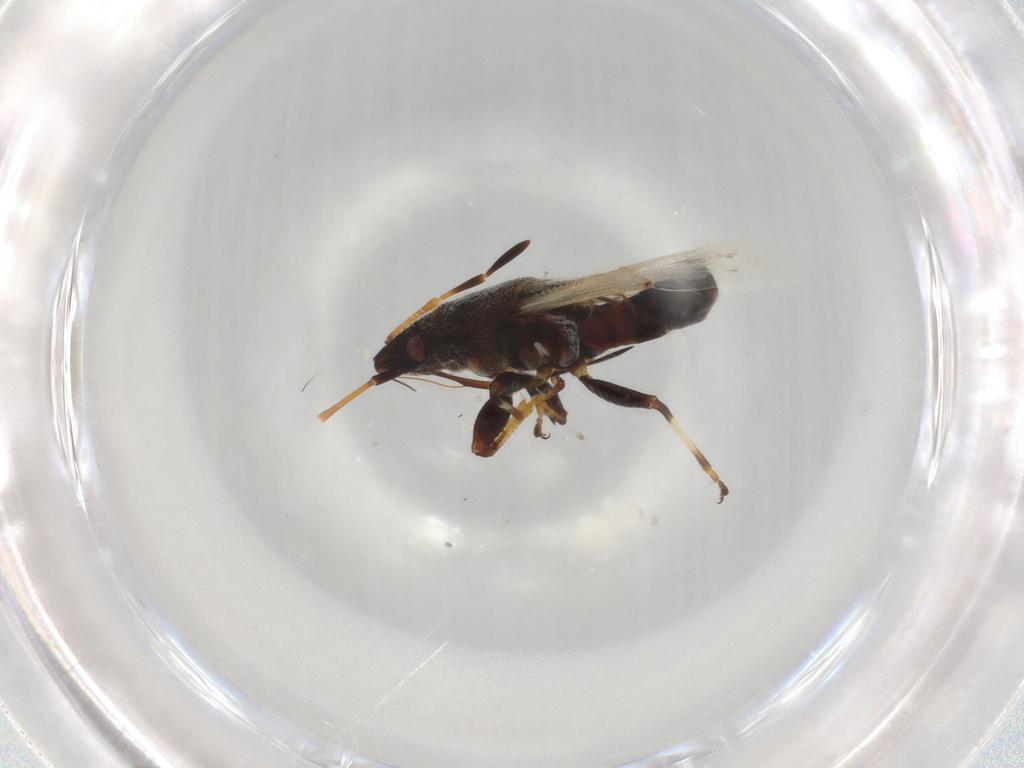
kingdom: Animalia
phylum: Arthropoda
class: Insecta
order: Hemiptera
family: Oxycarenidae
